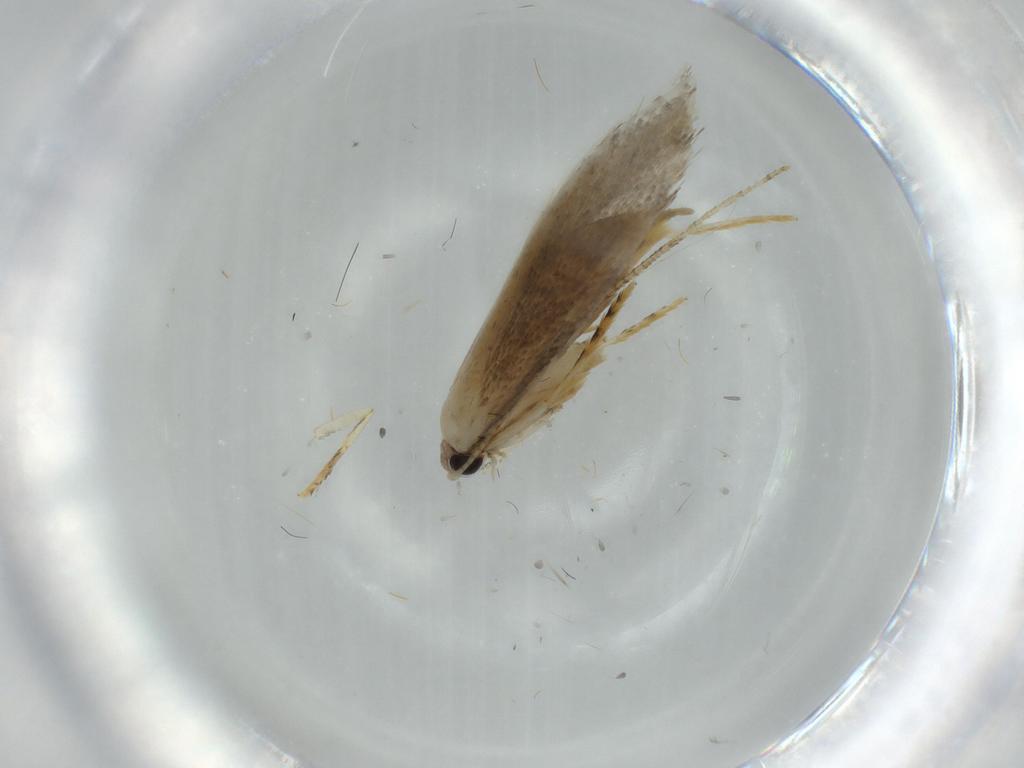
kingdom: Animalia
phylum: Arthropoda
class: Insecta
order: Lepidoptera
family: Tineidae
